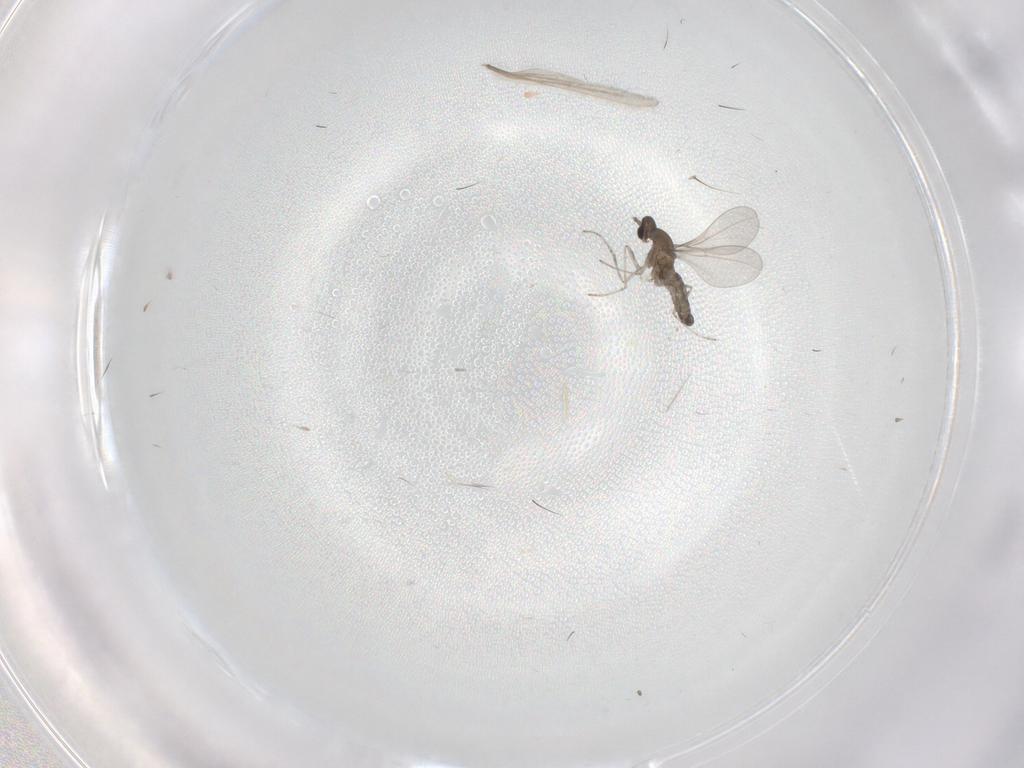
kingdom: Animalia
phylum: Arthropoda
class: Insecta
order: Diptera
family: Cecidomyiidae
